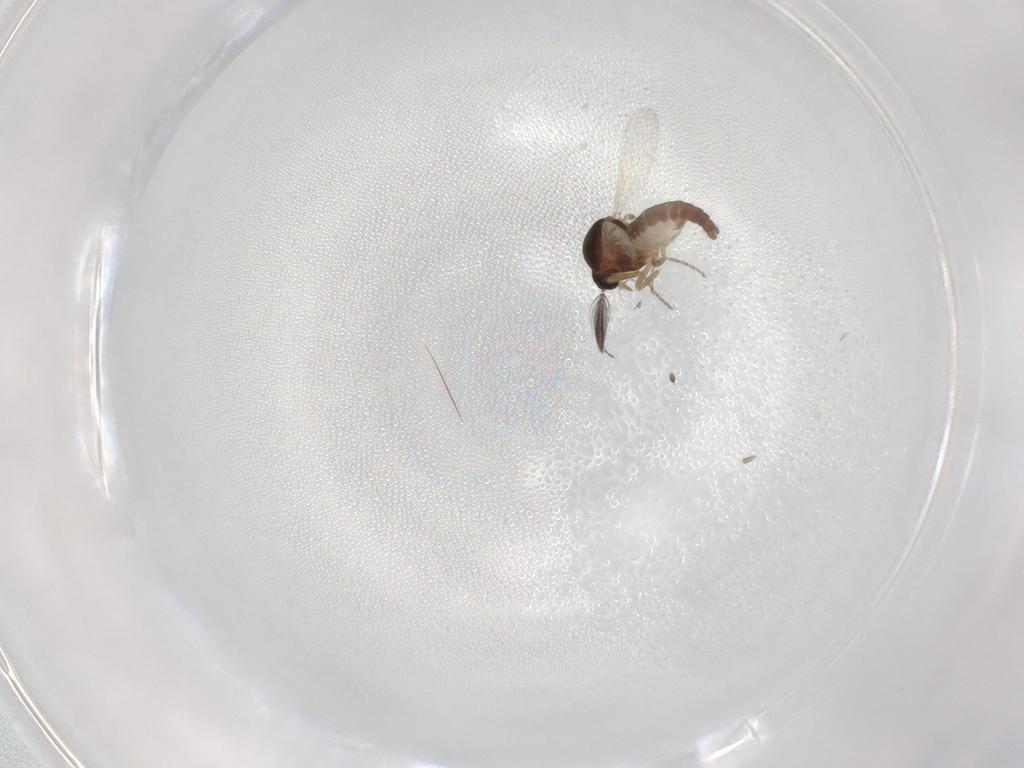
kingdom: Animalia
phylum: Arthropoda
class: Insecta
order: Diptera
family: Ceratopogonidae
